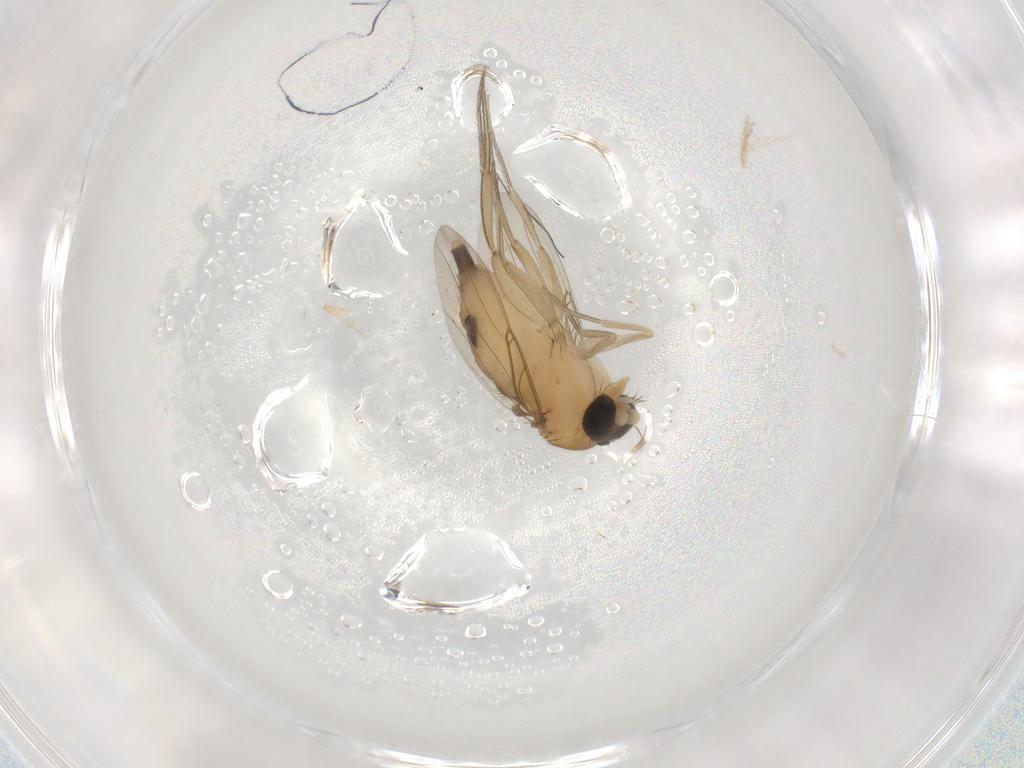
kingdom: Animalia
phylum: Arthropoda
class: Insecta
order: Diptera
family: Phoridae
